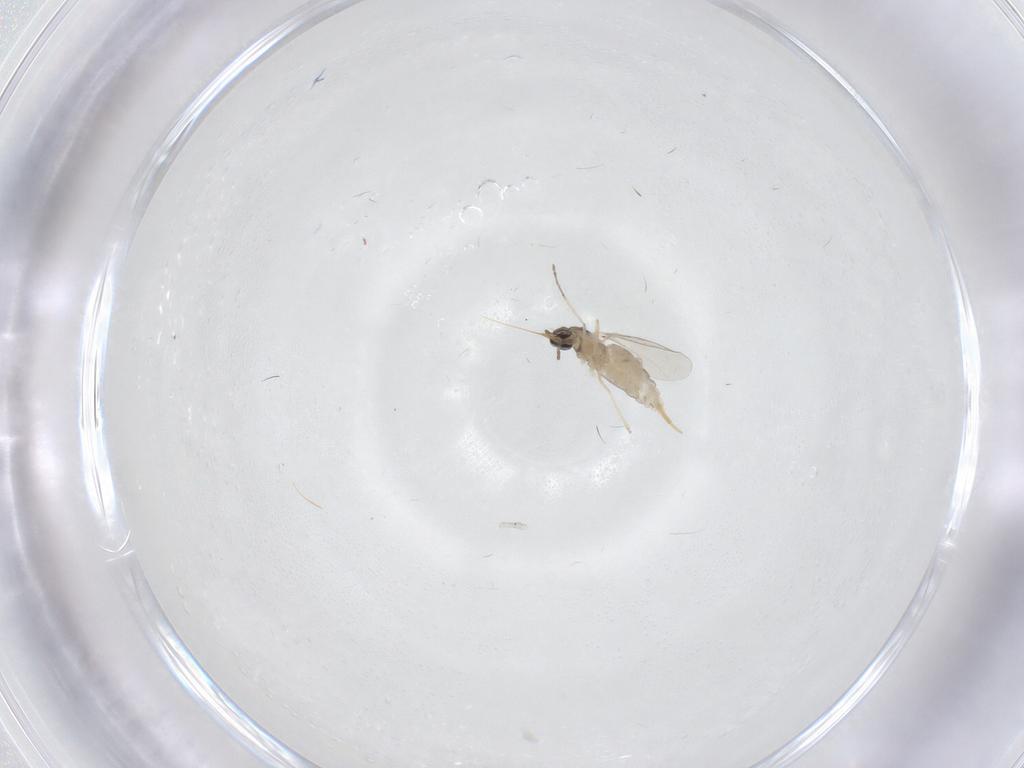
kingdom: Animalia
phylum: Arthropoda
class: Insecta
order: Diptera
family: Cecidomyiidae
